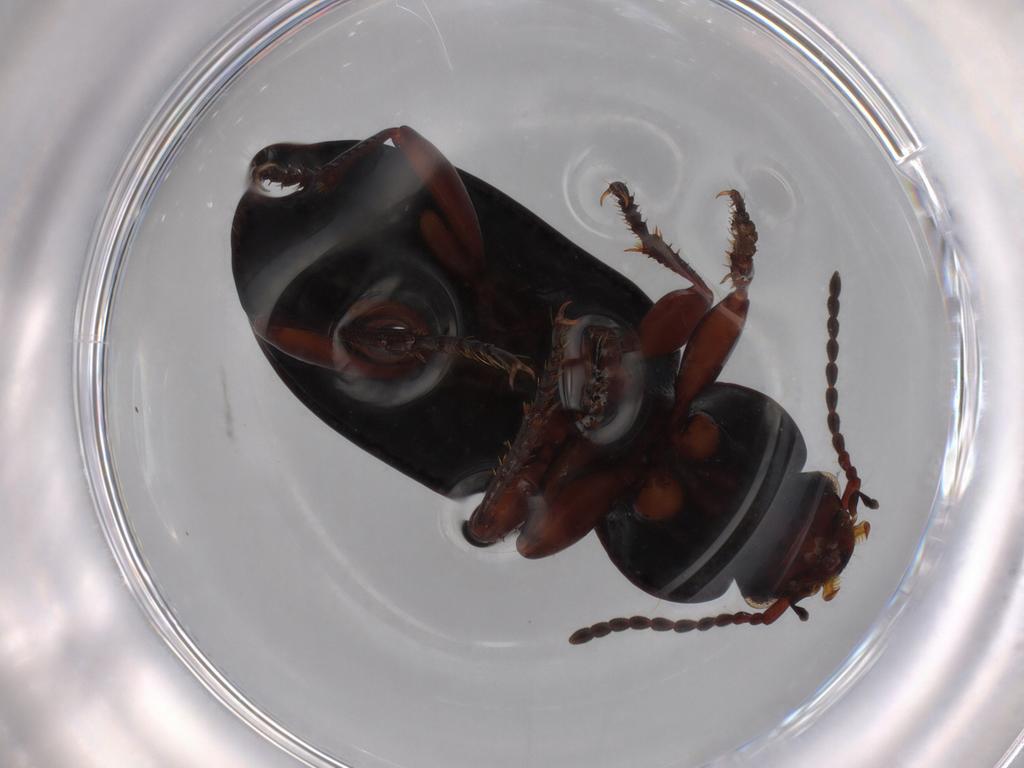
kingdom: Animalia
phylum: Arthropoda
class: Insecta
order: Coleoptera
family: Carabidae
